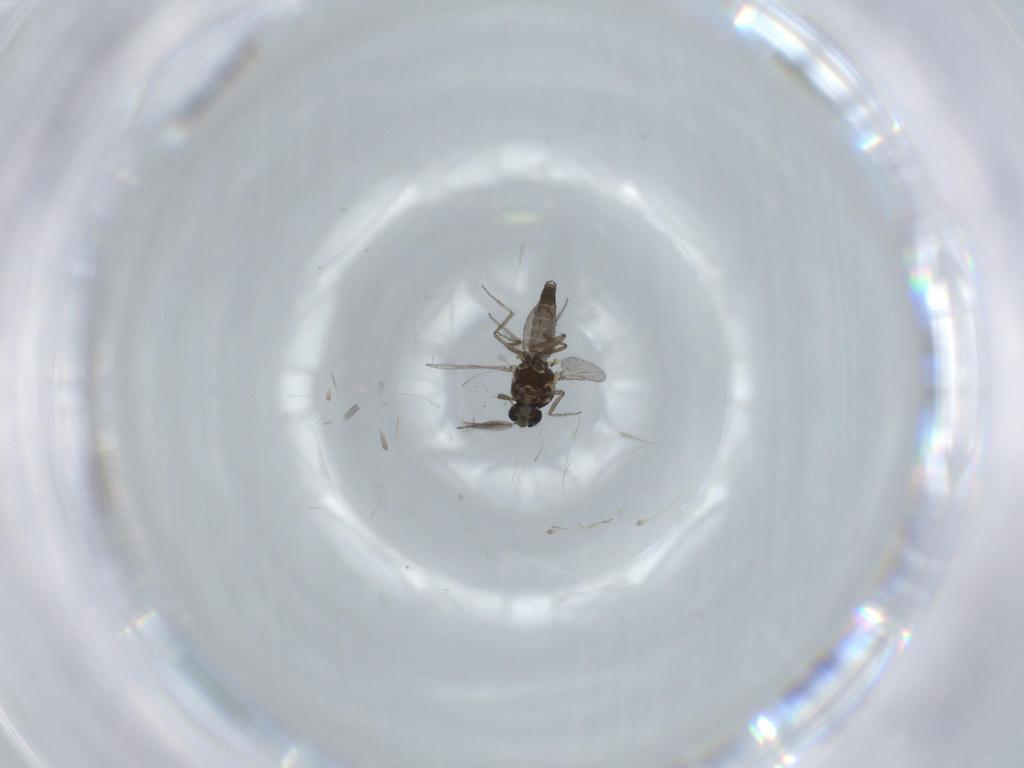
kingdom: Animalia
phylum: Arthropoda
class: Insecta
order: Diptera
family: Ceratopogonidae
